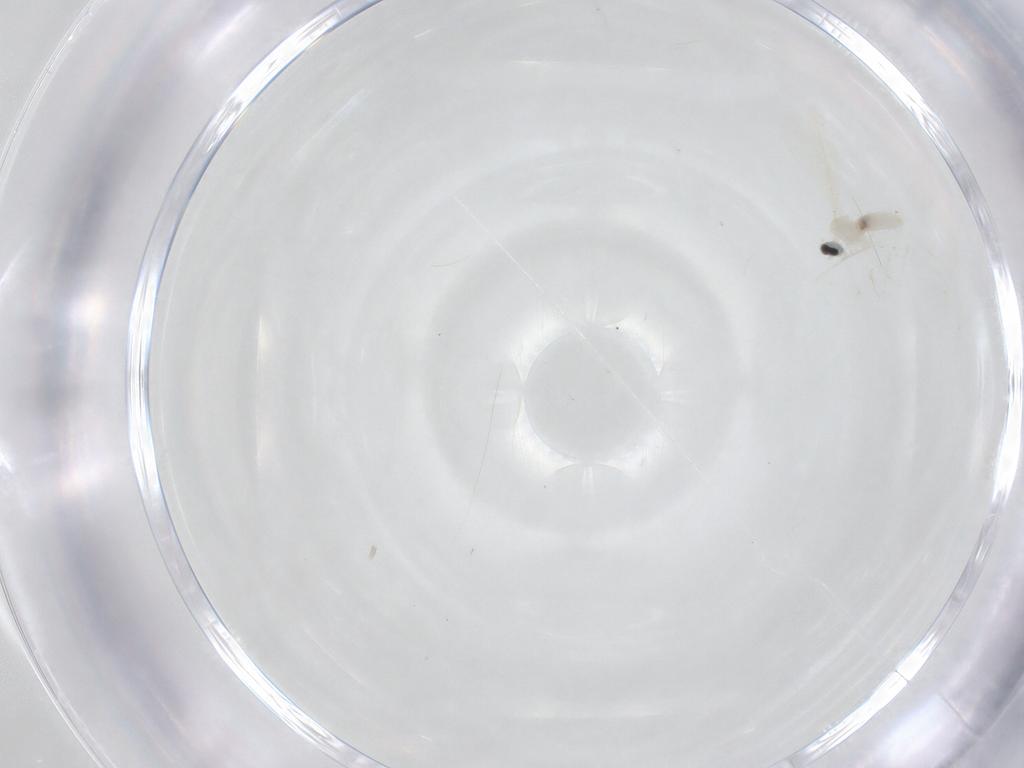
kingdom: Animalia
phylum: Arthropoda
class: Insecta
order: Diptera
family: Cecidomyiidae
